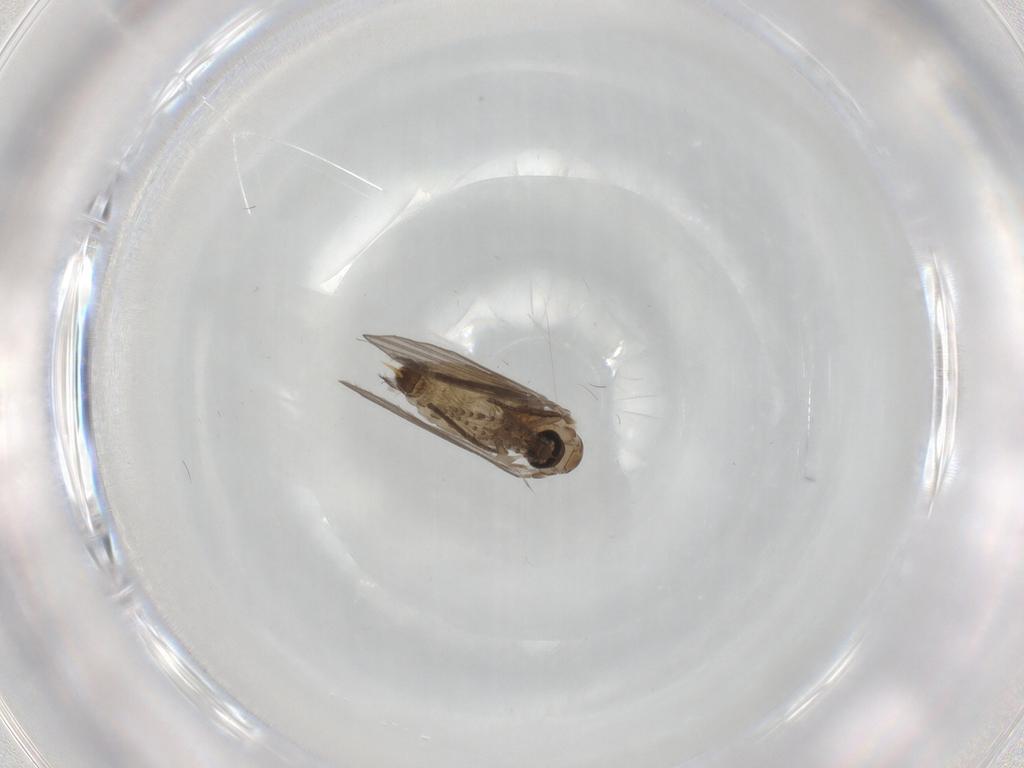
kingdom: Animalia
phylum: Arthropoda
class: Insecta
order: Diptera
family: Psychodidae
